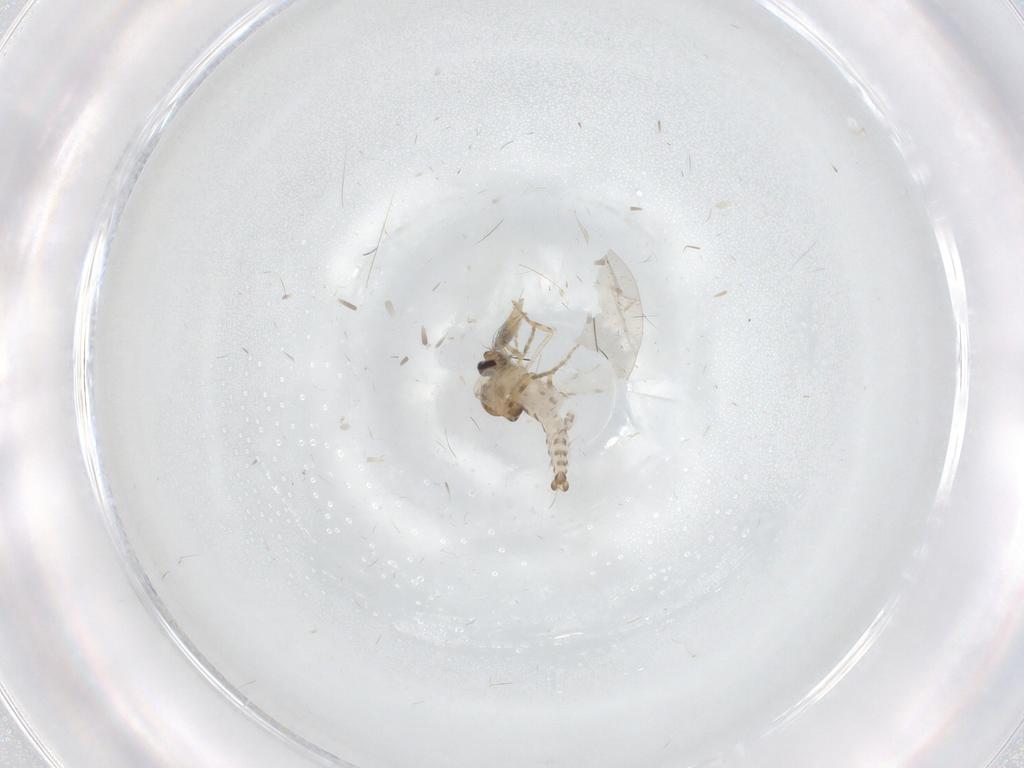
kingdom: Animalia
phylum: Arthropoda
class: Insecta
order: Diptera
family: Ceratopogonidae
